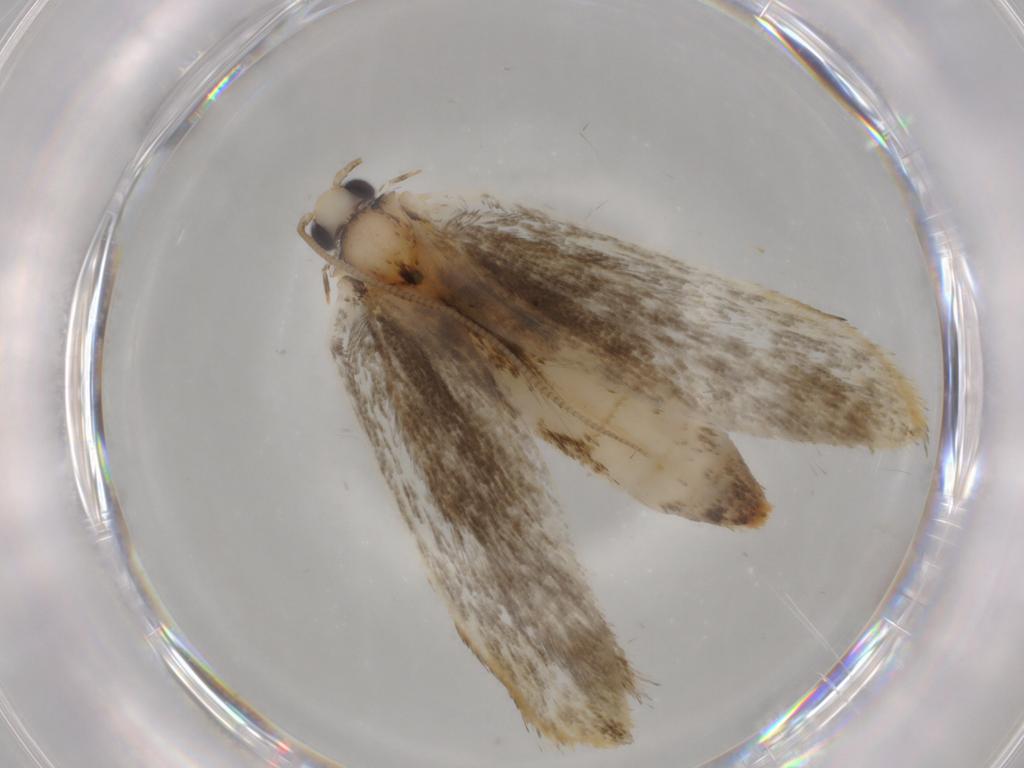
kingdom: Animalia
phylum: Arthropoda
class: Insecta
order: Lepidoptera
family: Tineidae
